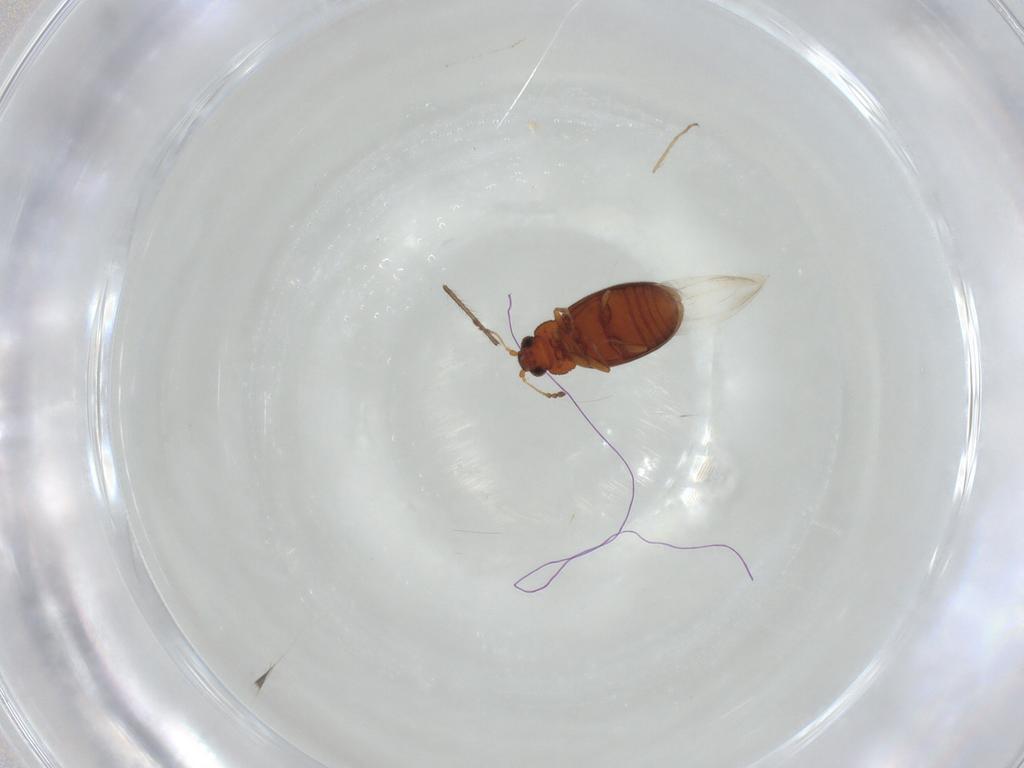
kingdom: Animalia
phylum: Arthropoda
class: Insecta
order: Coleoptera
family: Latridiidae
